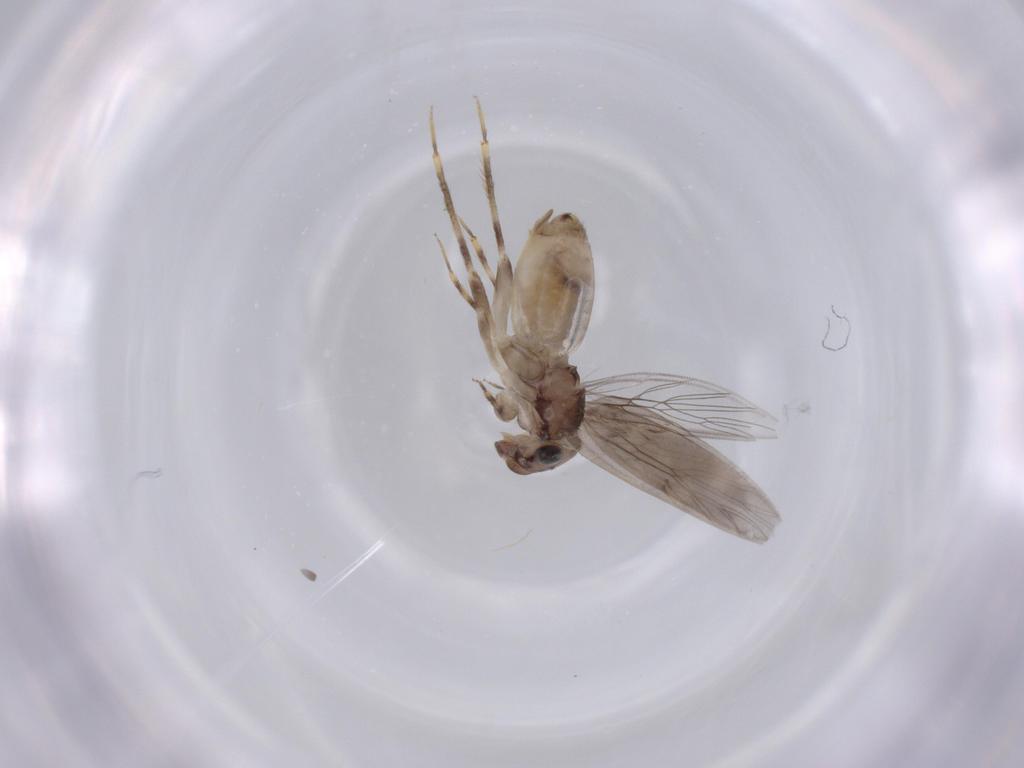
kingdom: Animalia
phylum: Arthropoda
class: Insecta
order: Psocodea
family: Lepidopsocidae
